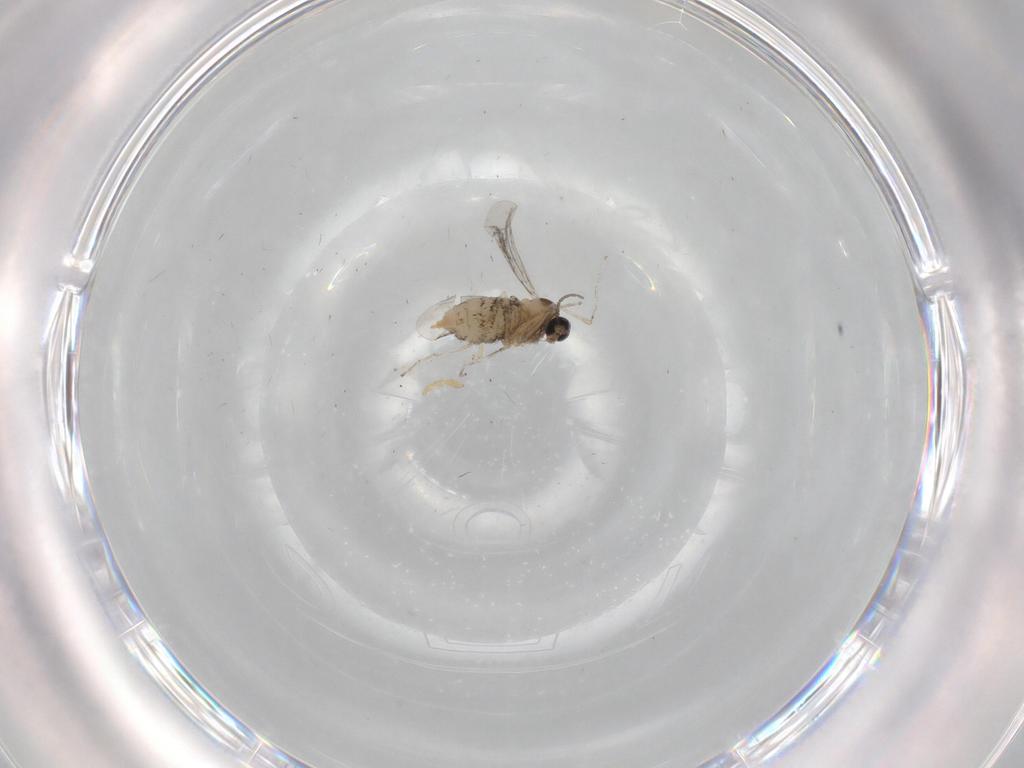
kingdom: Animalia
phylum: Arthropoda
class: Insecta
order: Diptera
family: Cecidomyiidae
